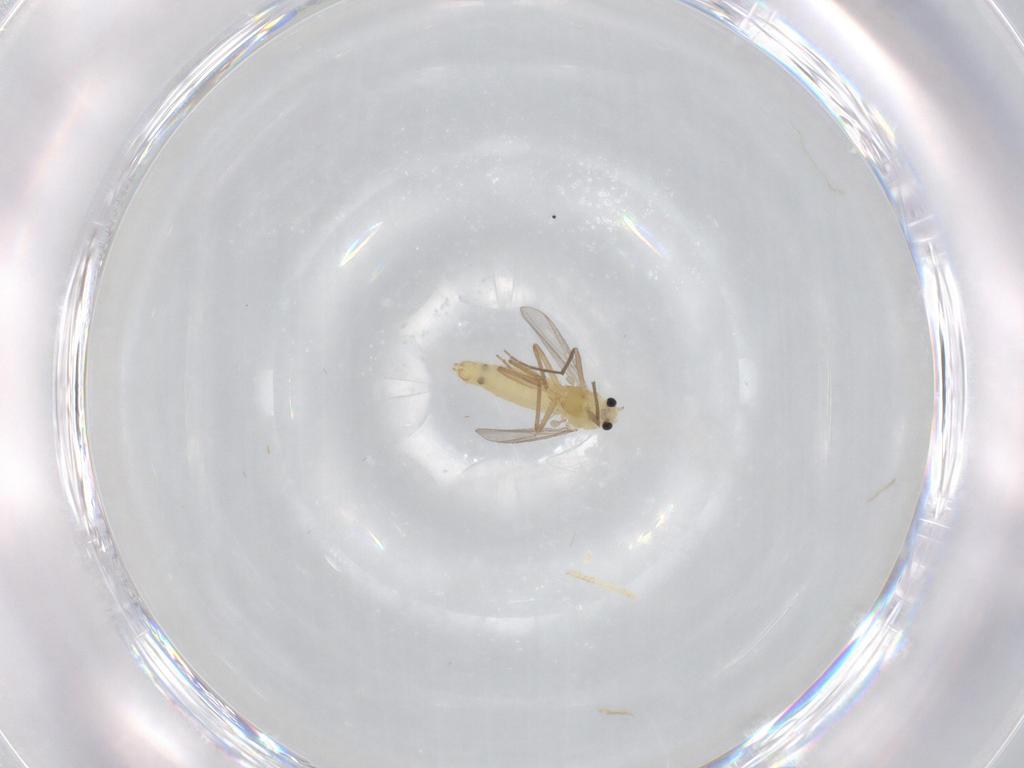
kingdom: Animalia
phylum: Arthropoda
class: Insecta
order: Diptera
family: Chironomidae
